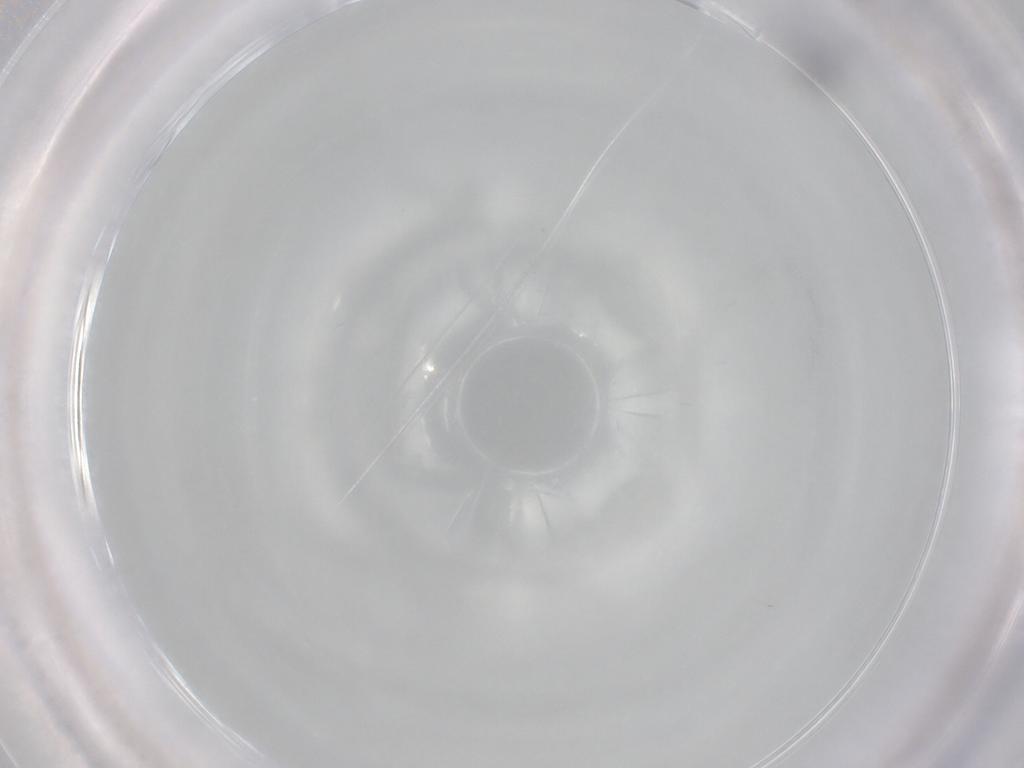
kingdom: Animalia
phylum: Arthropoda
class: Insecta
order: Diptera
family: Syrphidae
